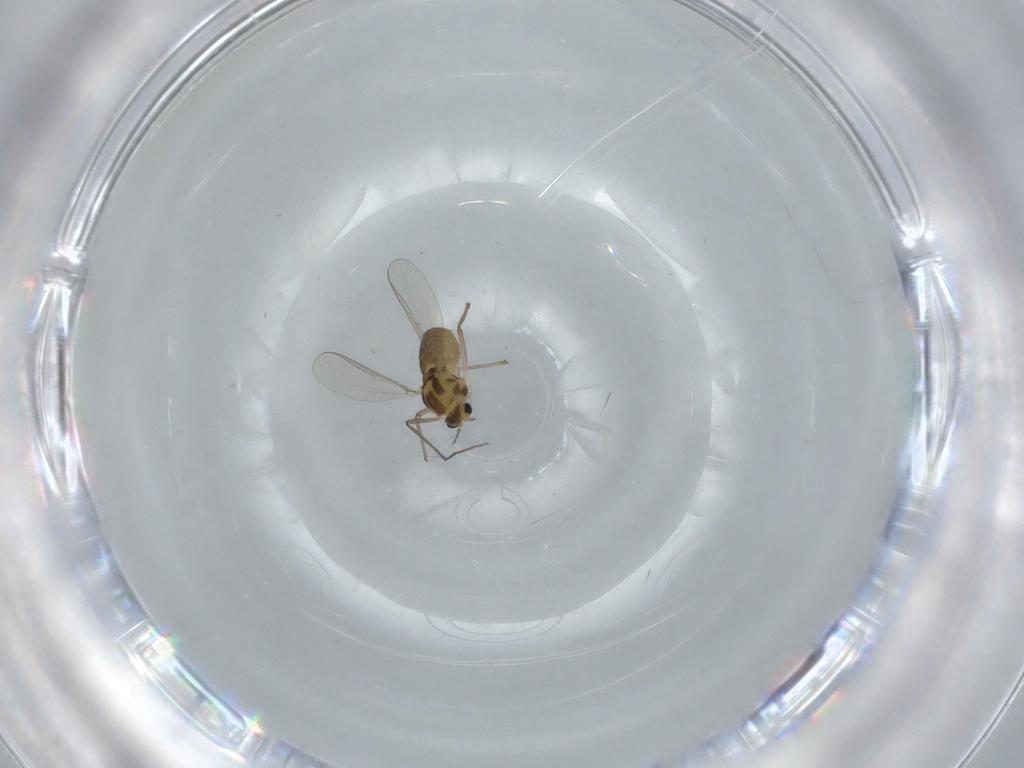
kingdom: Animalia
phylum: Arthropoda
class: Insecta
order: Diptera
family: Chironomidae
